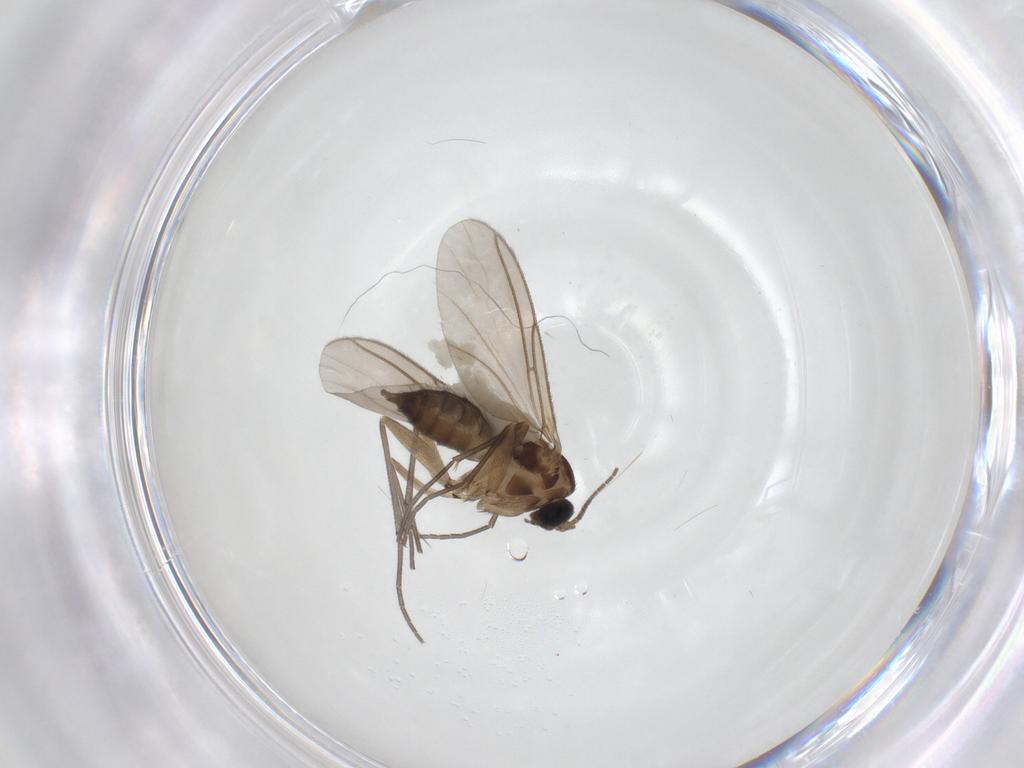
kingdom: Animalia
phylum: Arthropoda
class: Insecta
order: Diptera
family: Sciaridae
